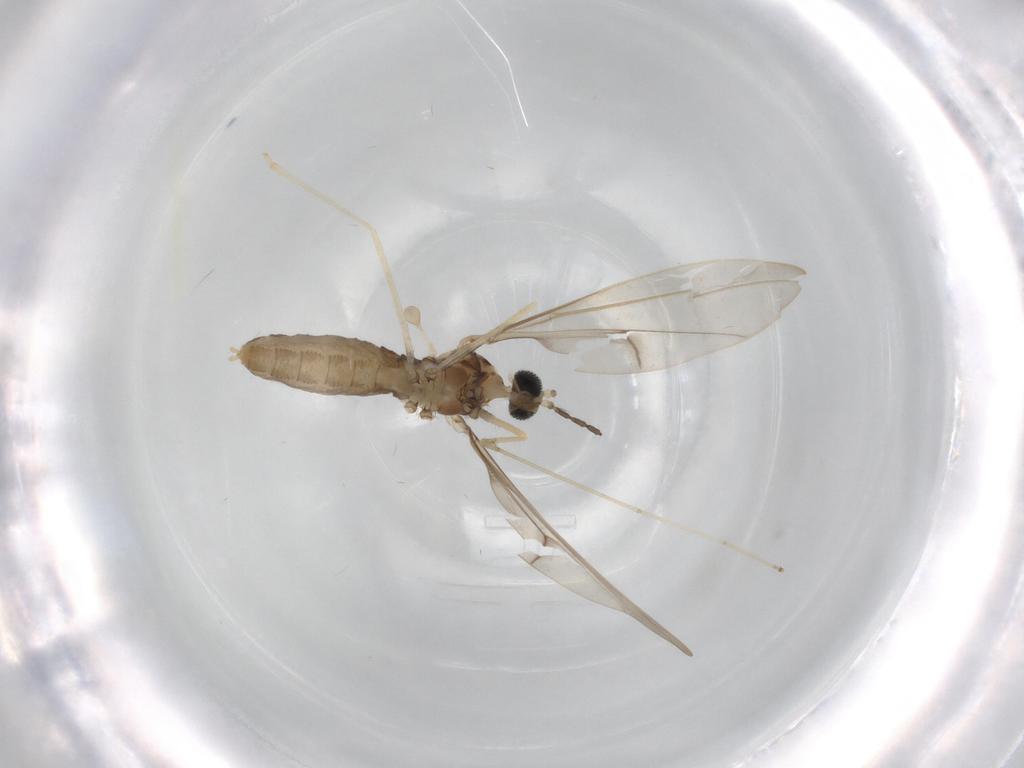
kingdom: Animalia
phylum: Arthropoda
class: Insecta
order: Diptera
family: Cecidomyiidae
